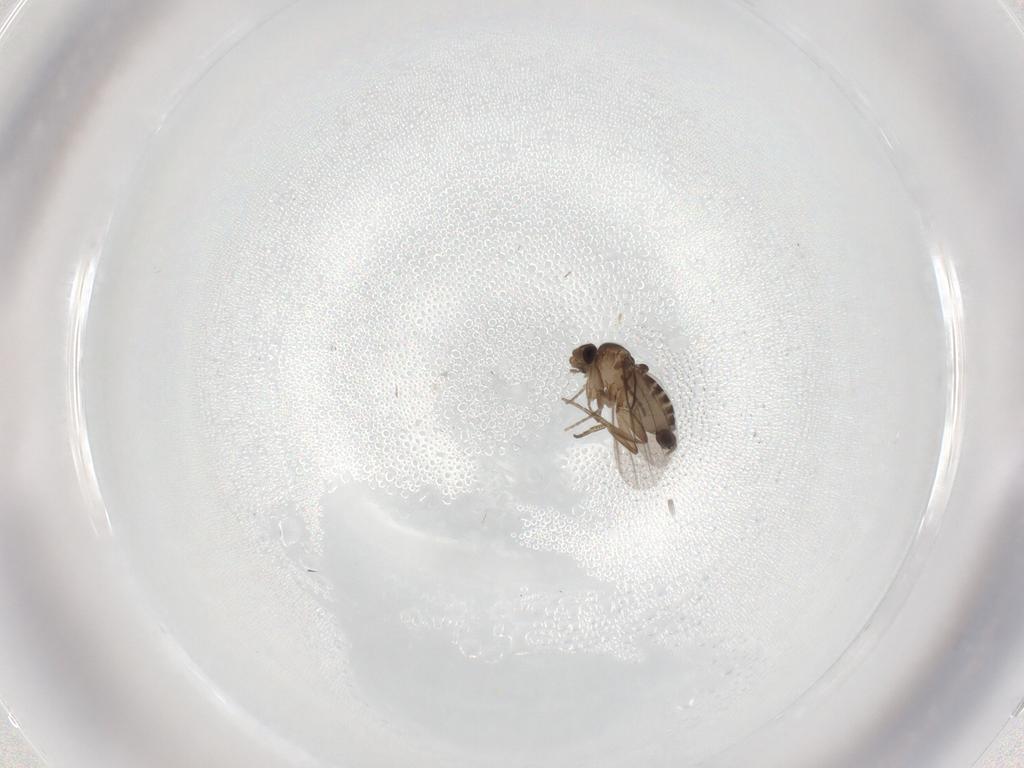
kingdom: Animalia
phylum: Arthropoda
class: Insecta
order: Diptera
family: Phoridae
